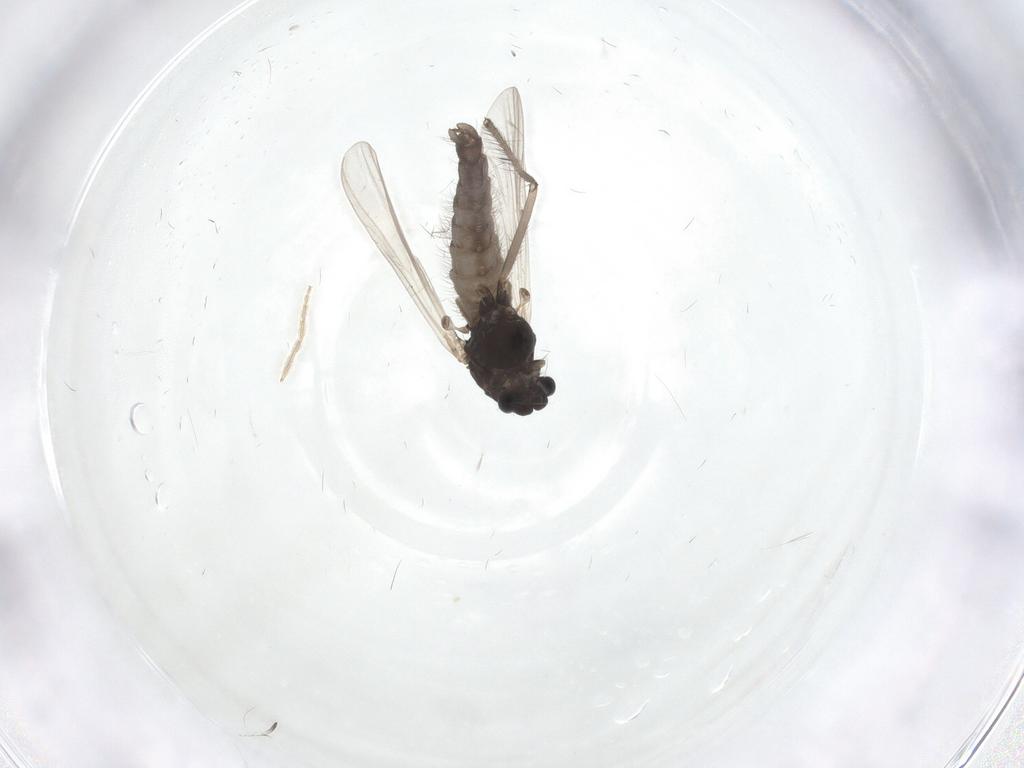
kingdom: Animalia
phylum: Arthropoda
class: Insecta
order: Diptera
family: Chironomidae
